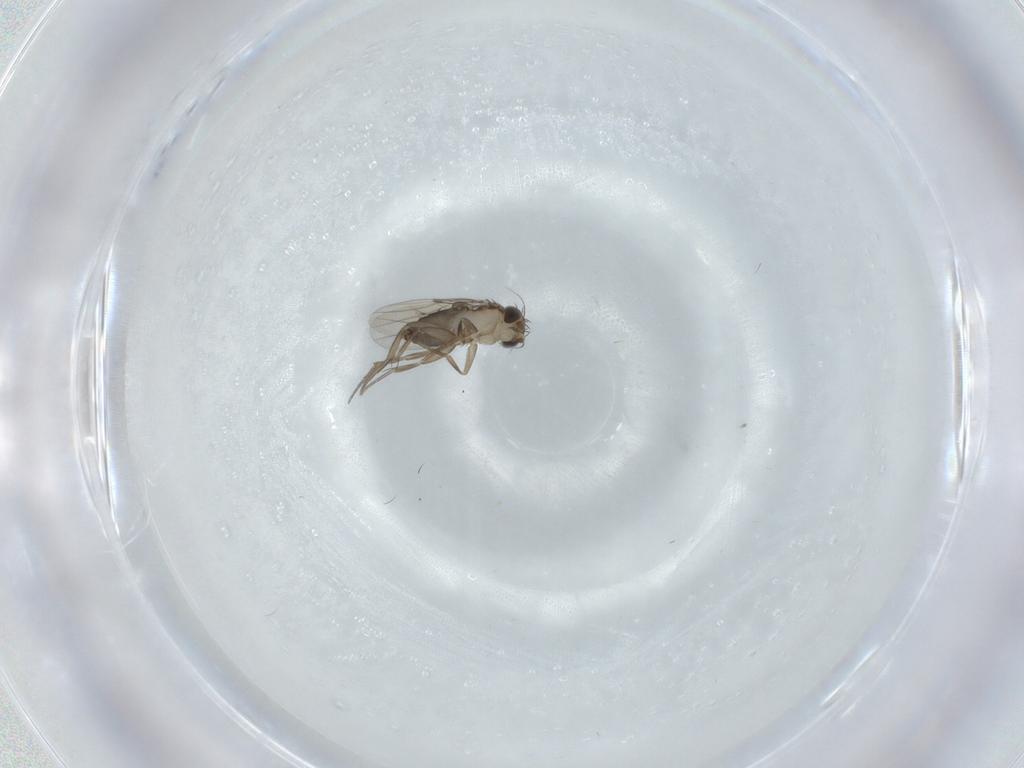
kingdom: Animalia
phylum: Arthropoda
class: Insecta
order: Diptera
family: Phoridae
